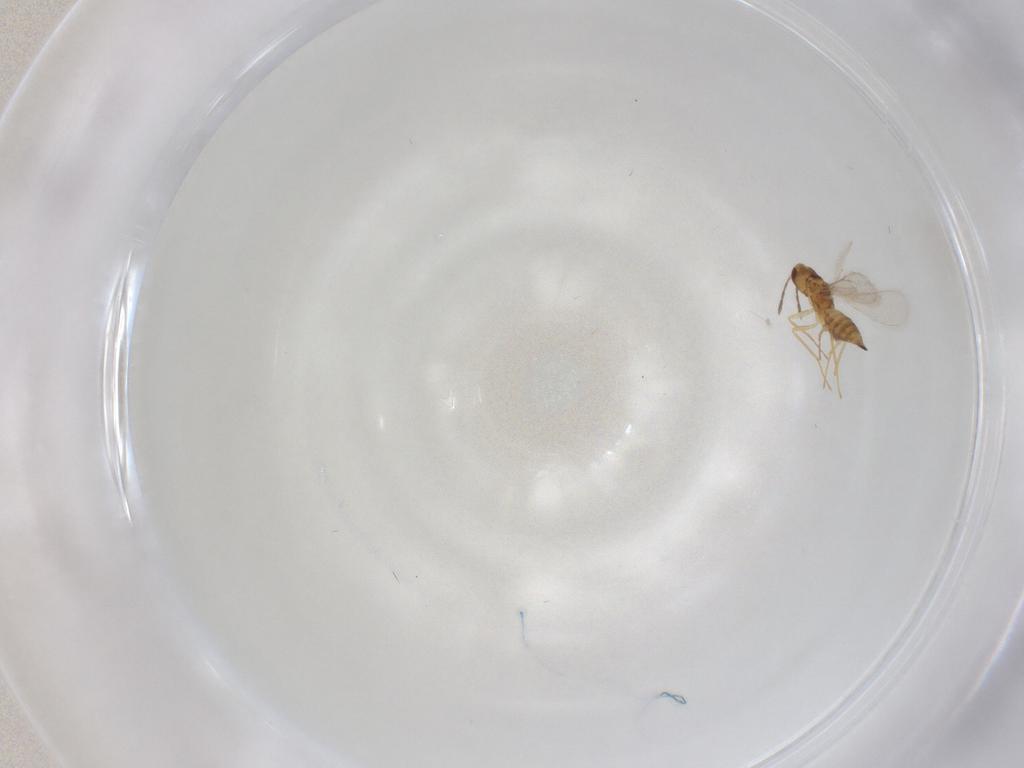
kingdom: Animalia
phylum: Arthropoda
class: Insecta
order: Hymenoptera
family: Eulophidae
